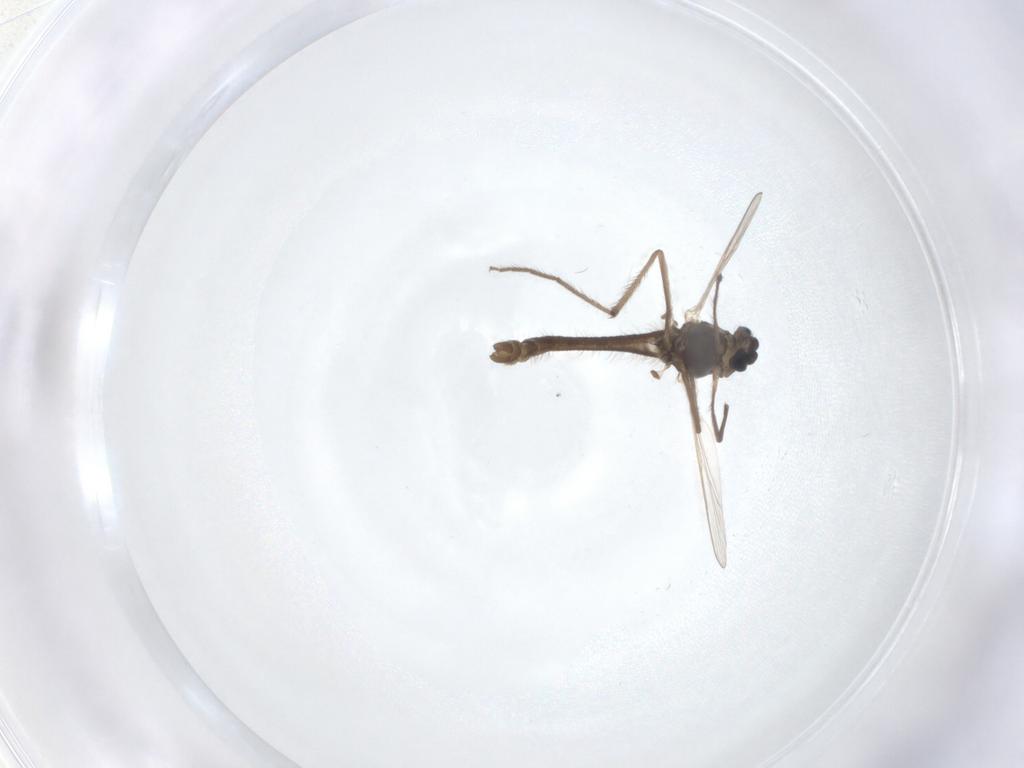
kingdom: Animalia
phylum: Arthropoda
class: Insecta
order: Diptera
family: Chironomidae
